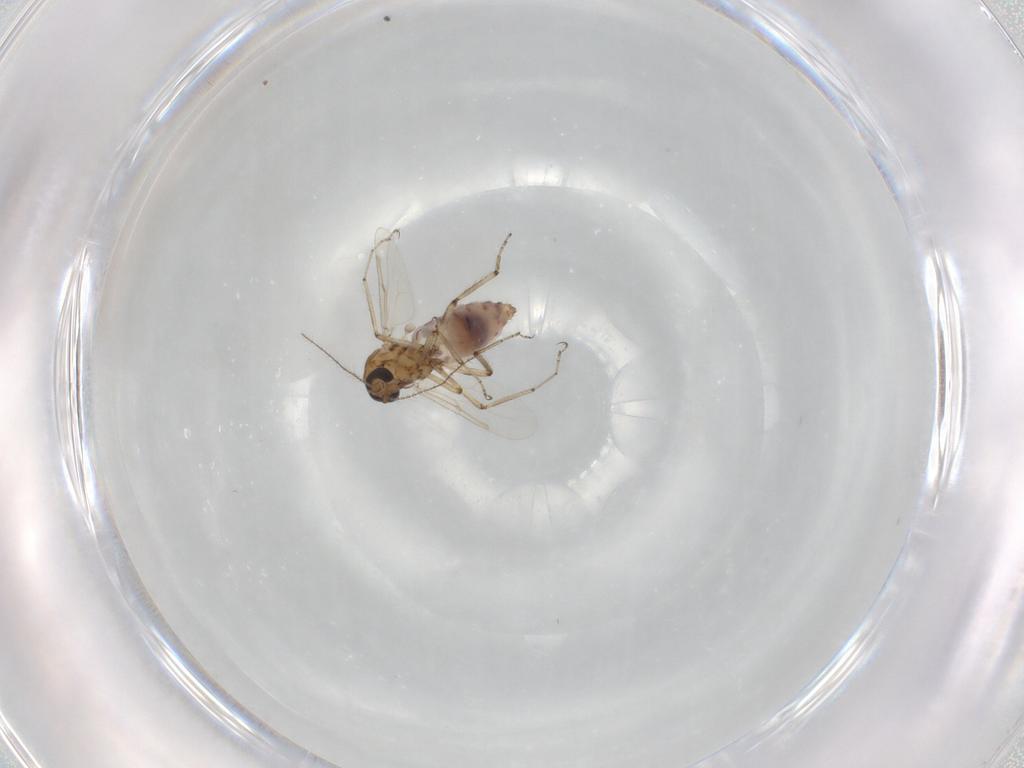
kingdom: Animalia
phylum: Arthropoda
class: Insecta
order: Diptera
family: Ceratopogonidae
